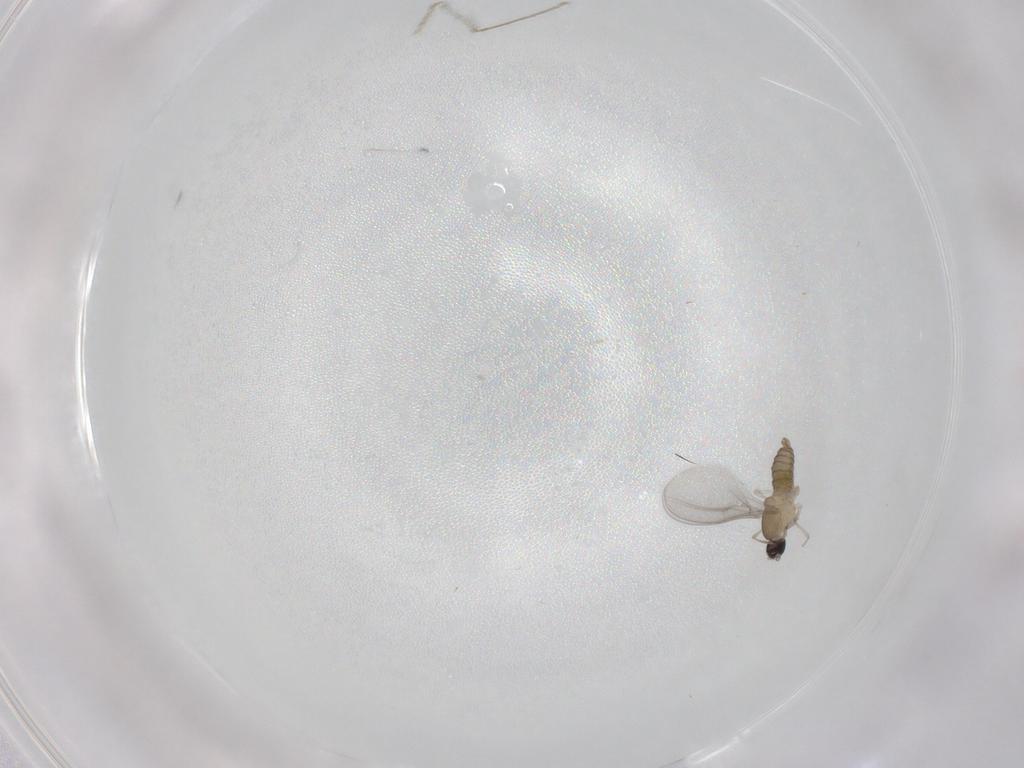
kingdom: Animalia
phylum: Arthropoda
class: Insecta
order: Diptera
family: Cecidomyiidae
